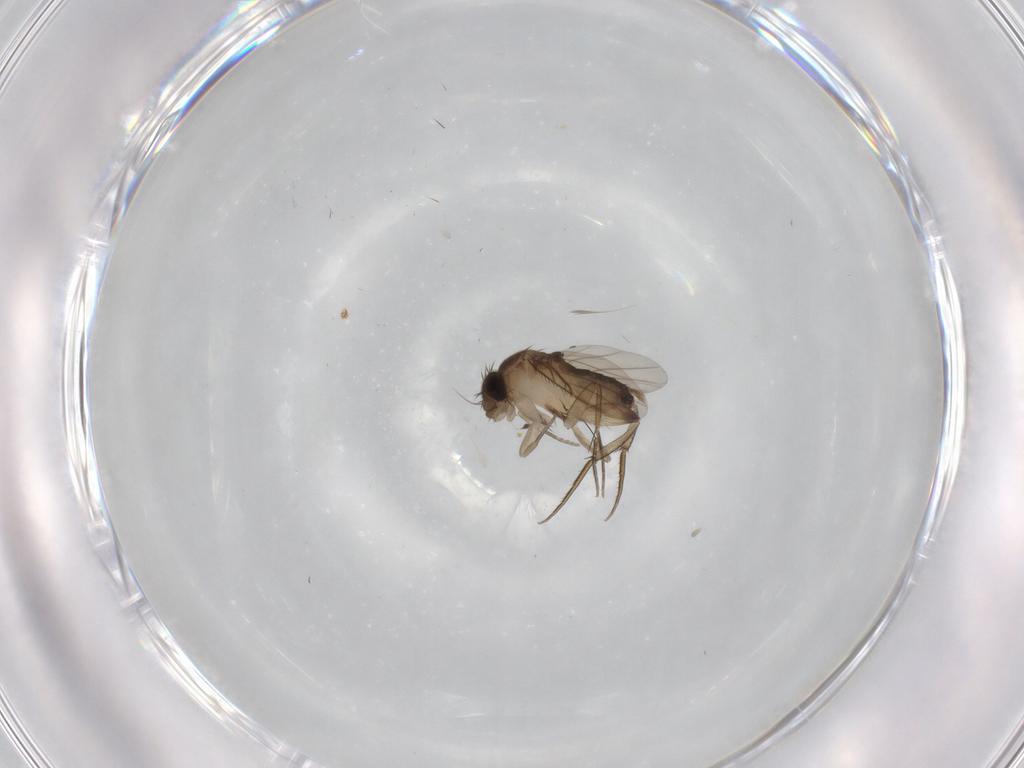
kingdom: Animalia
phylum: Arthropoda
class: Insecta
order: Diptera
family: Phoridae
